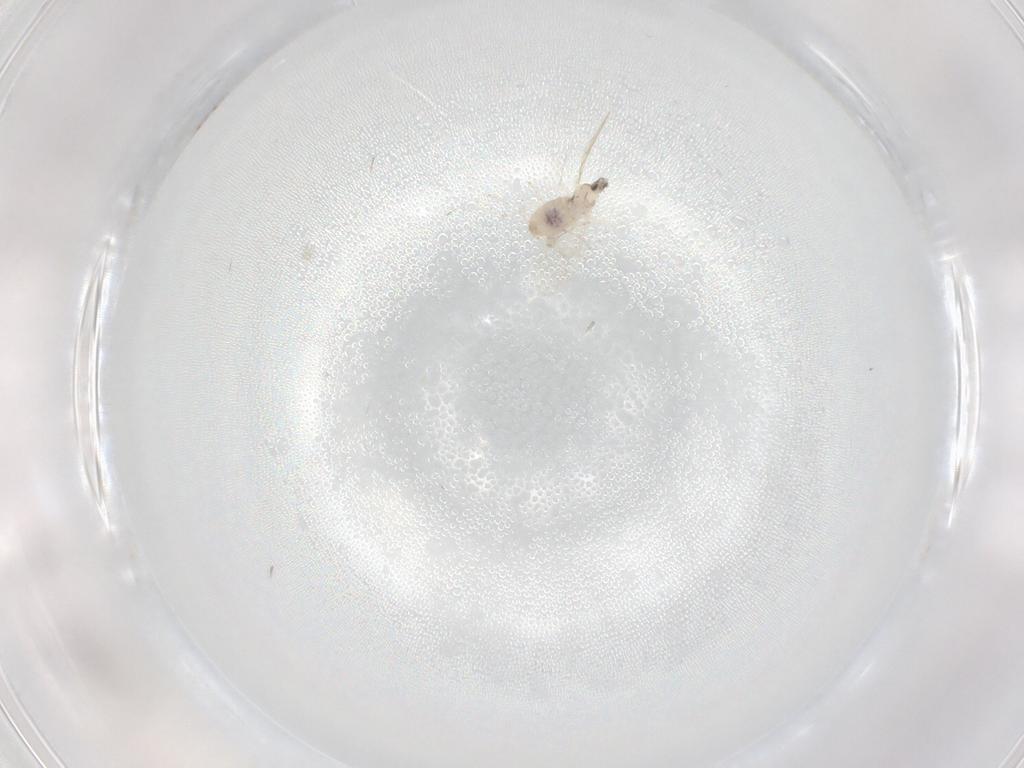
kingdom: Animalia
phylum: Arthropoda
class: Insecta
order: Diptera
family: Cecidomyiidae
